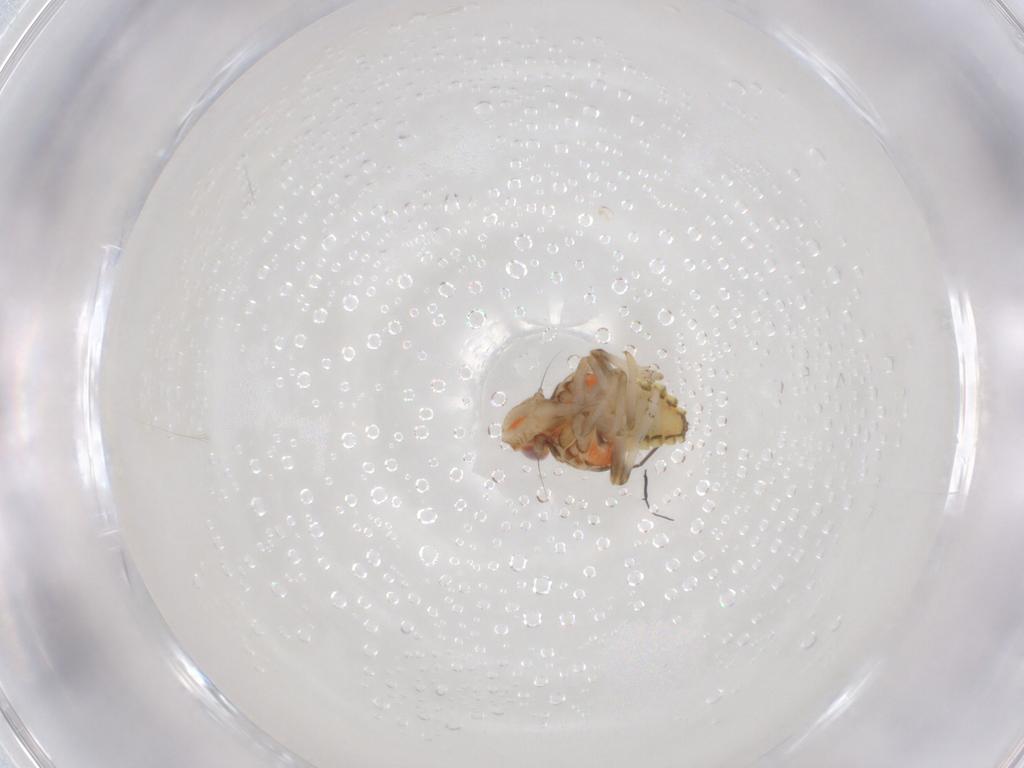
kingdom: Animalia
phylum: Arthropoda
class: Insecta
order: Hemiptera
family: Tropiduchidae
